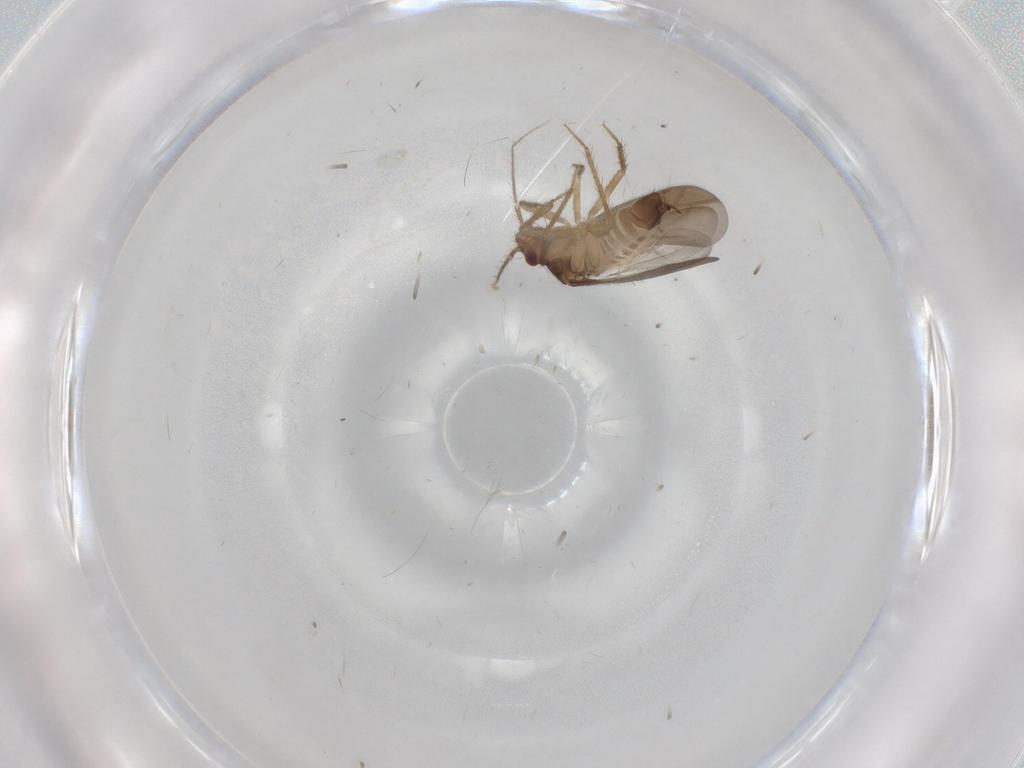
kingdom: Animalia
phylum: Arthropoda
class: Insecta
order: Hemiptera
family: Ceratocombidae
